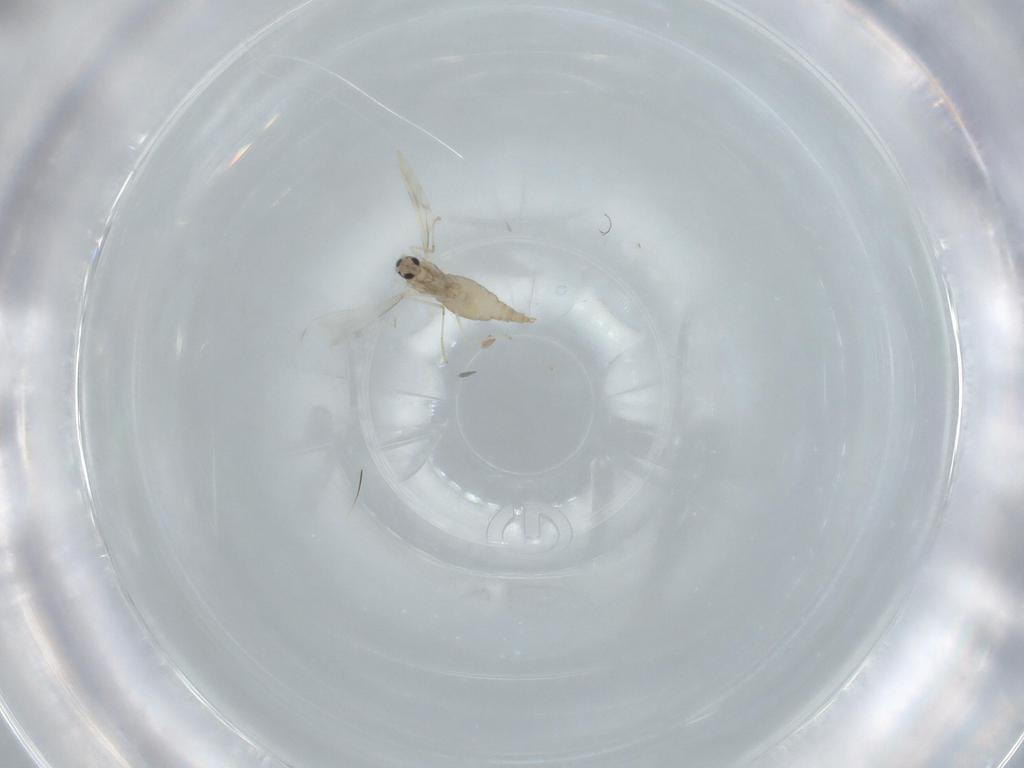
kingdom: Animalia
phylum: Arthropoda
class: Insecta
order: Diptera
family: Cecidomyiidae
